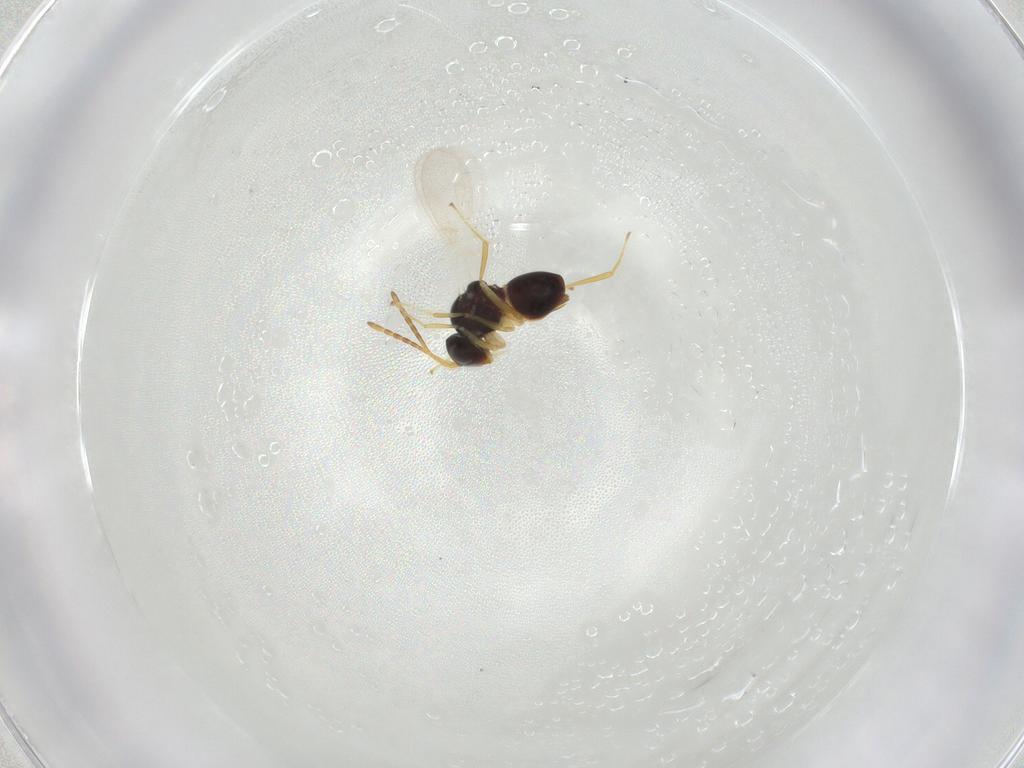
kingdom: Animalia
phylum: Arthropoda
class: Insecta
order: Hymenoptera
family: Figitidae
